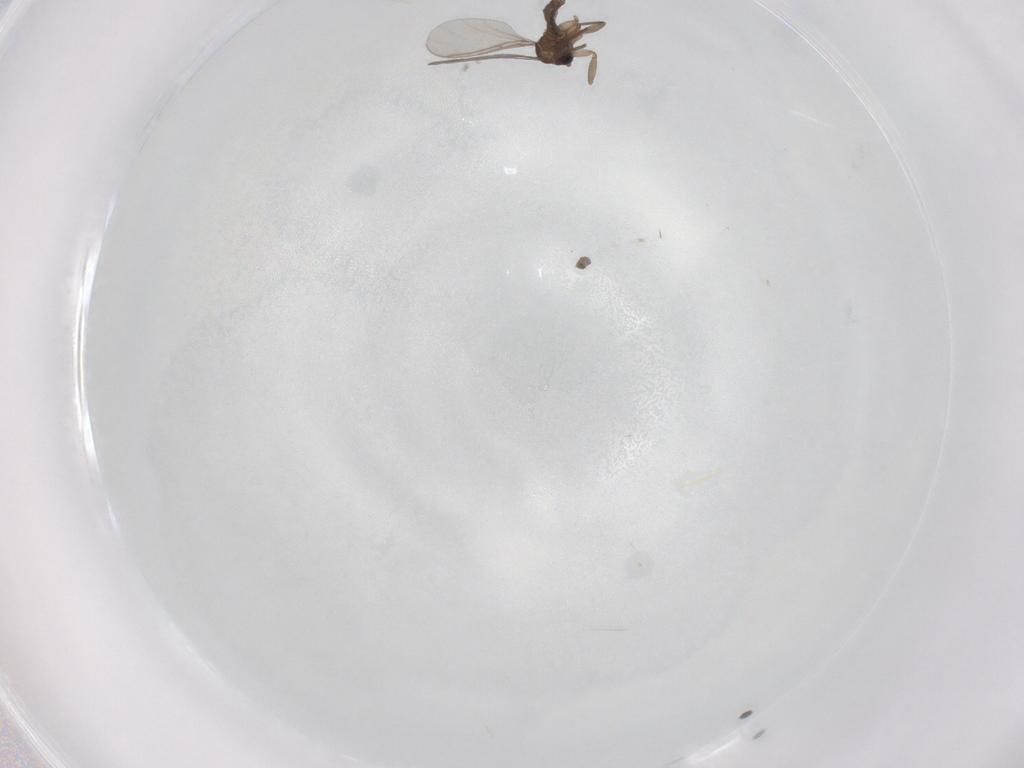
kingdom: Animalia
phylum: Arthropoda
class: Insecta
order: Diptera
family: Sciaridae
